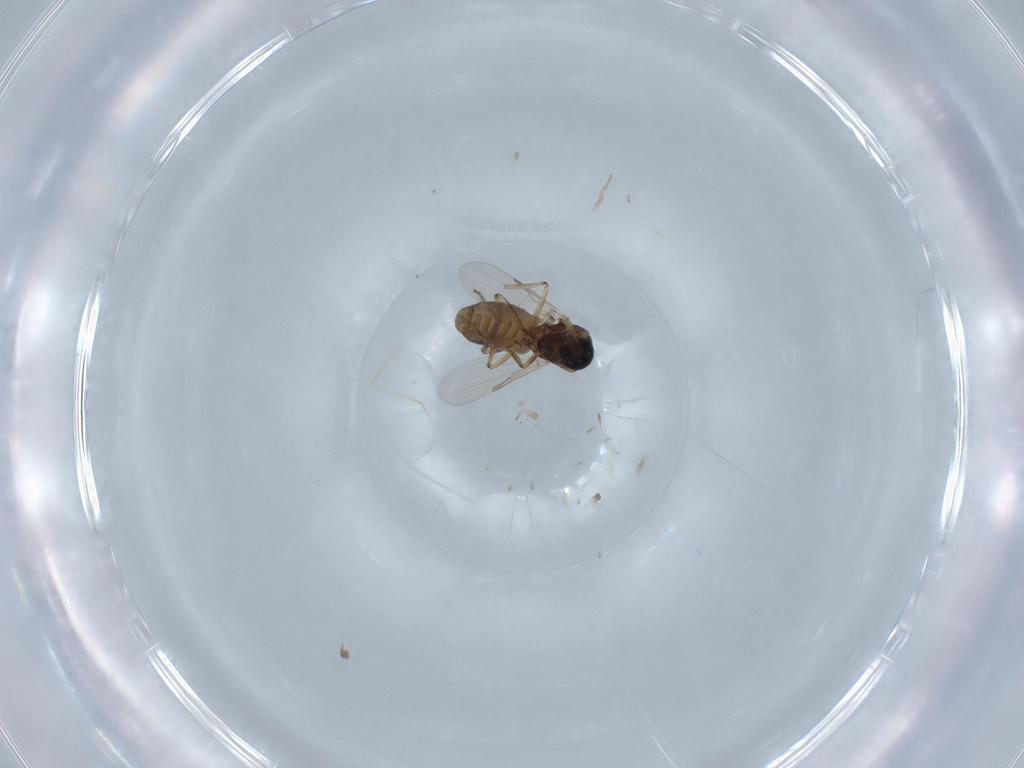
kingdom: Animalia
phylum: Arthropoda
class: Insecta
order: Diptera
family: Ceratopogonidae
